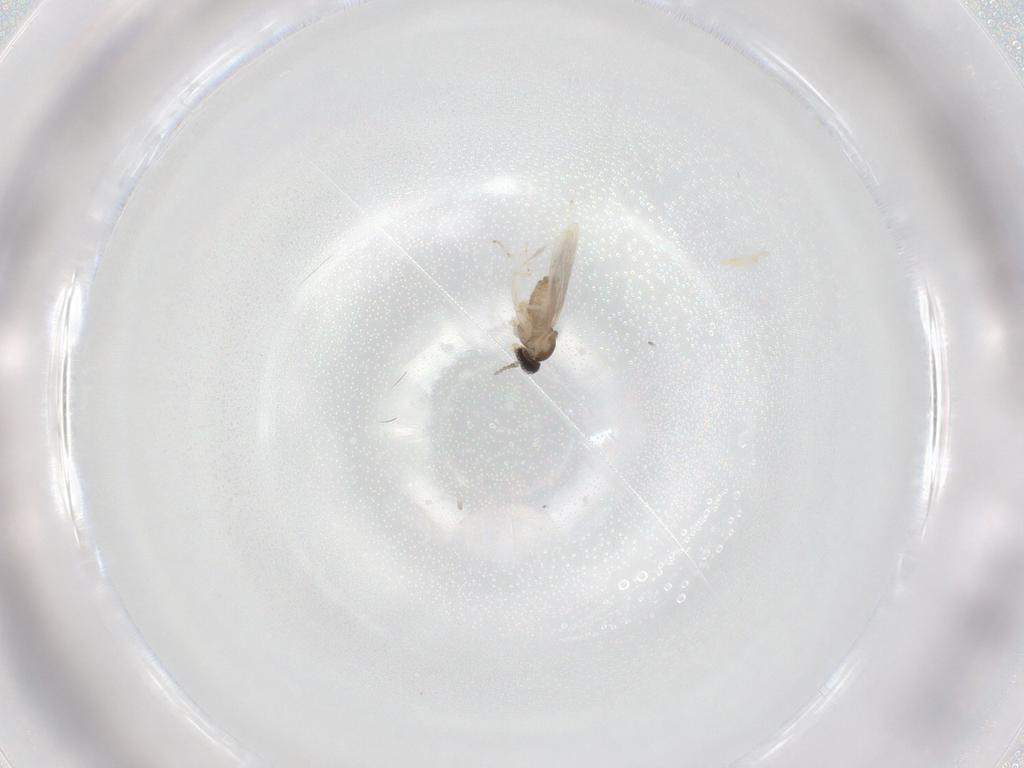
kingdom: Animalia
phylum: Arthropoda
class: Insecta
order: Diptera
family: Cecidomyiidae
